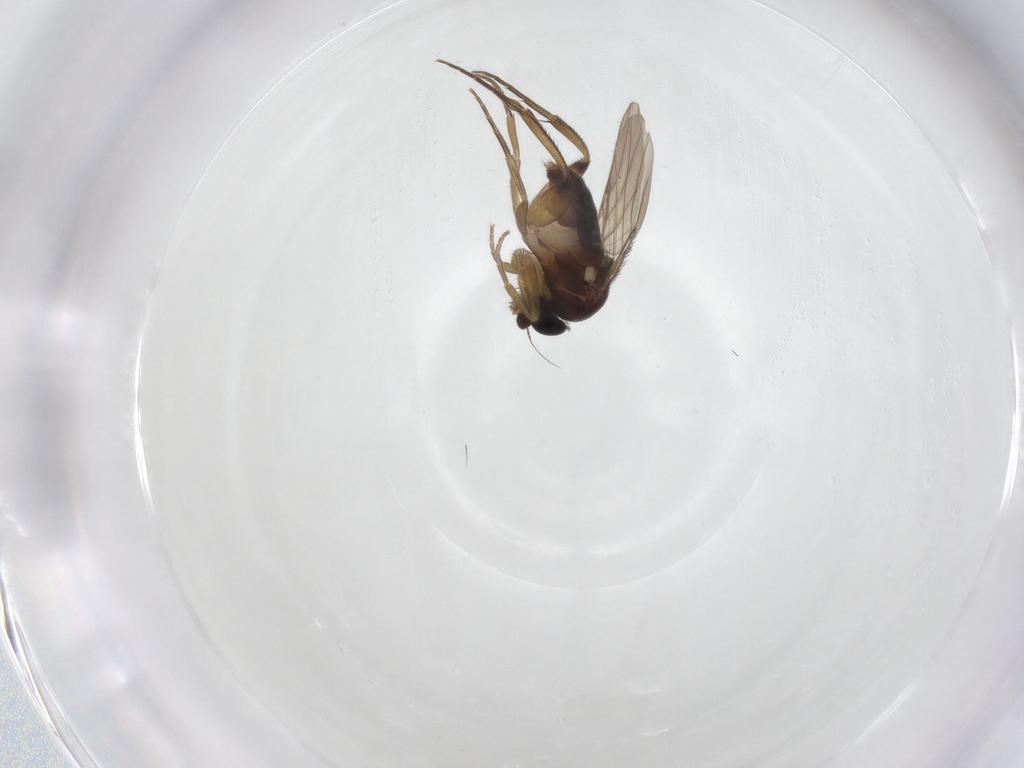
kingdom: Animalia
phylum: Arthropoda
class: Insecta
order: Diptera
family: Phoridae
